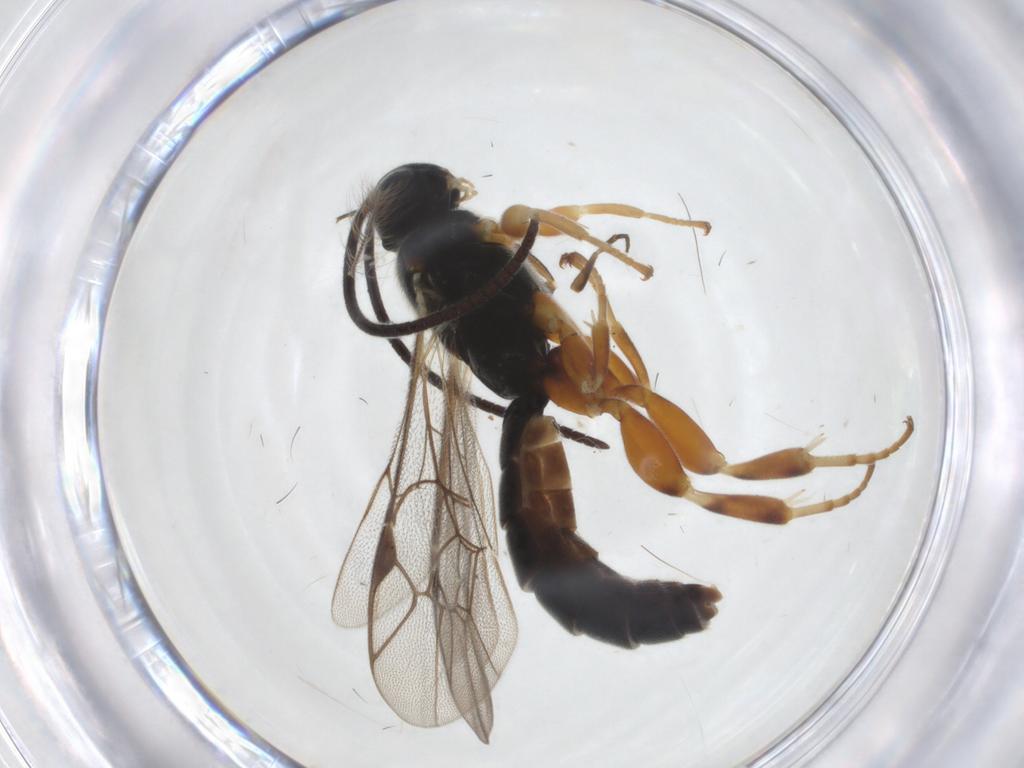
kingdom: Animalia
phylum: Arthropoda
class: Insecta
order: Hymenoptera
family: Ichneumonidae
